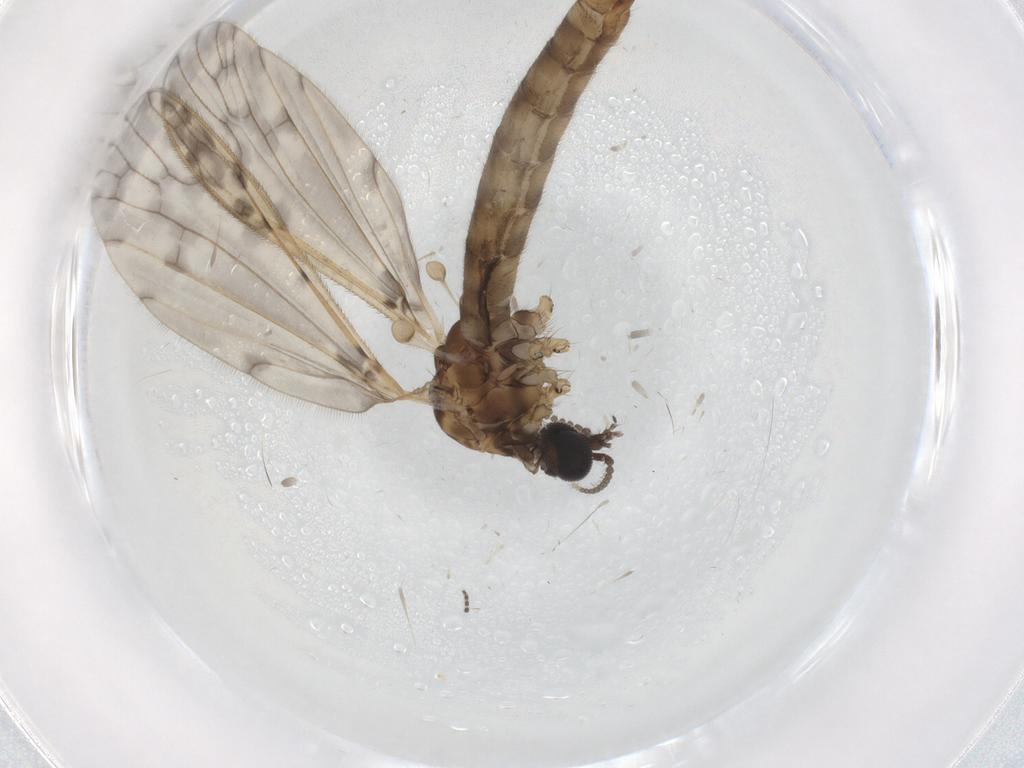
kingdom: Animalia
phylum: Arthropoda
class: Insecta
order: Diptera
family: Limoniidae
